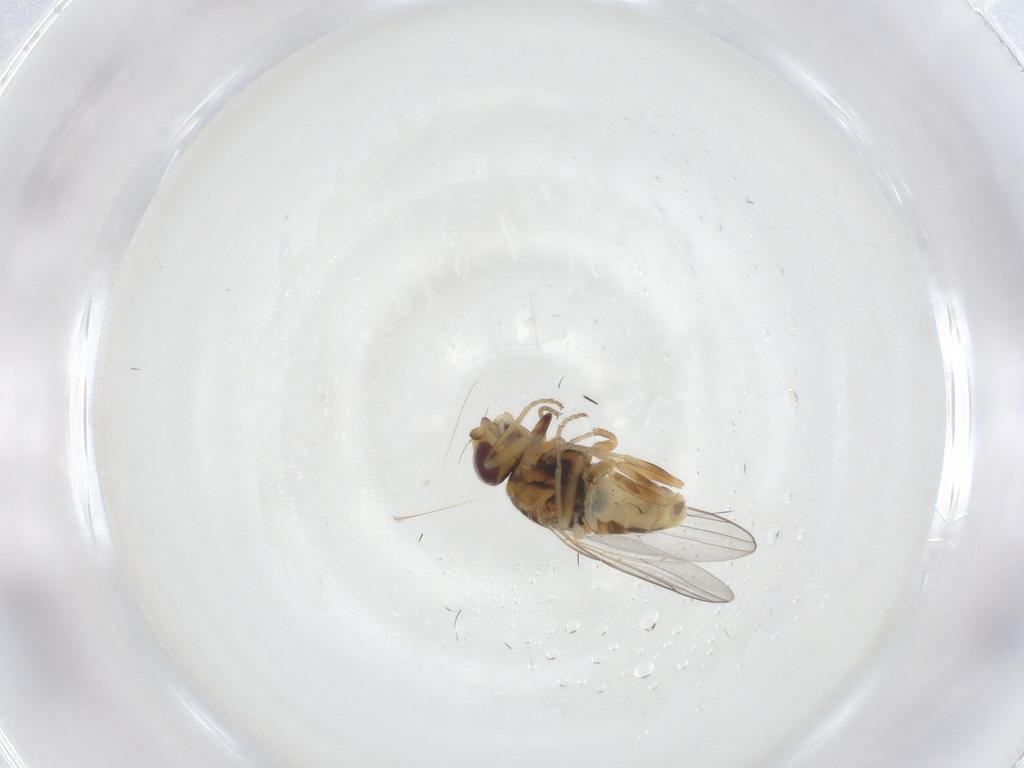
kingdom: Animalia
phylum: Arthropoda
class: Insecta
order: Diptera
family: Chloropidae
